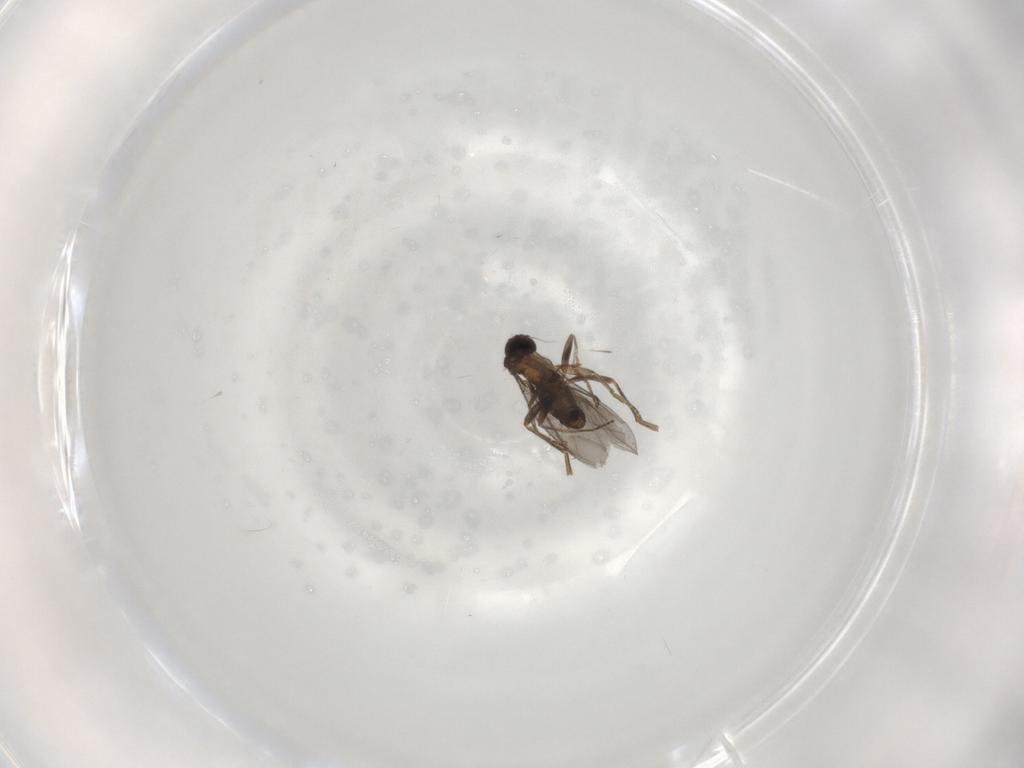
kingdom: Animalia
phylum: Arthropoda
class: Insecta
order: Diptera
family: Phoridae
